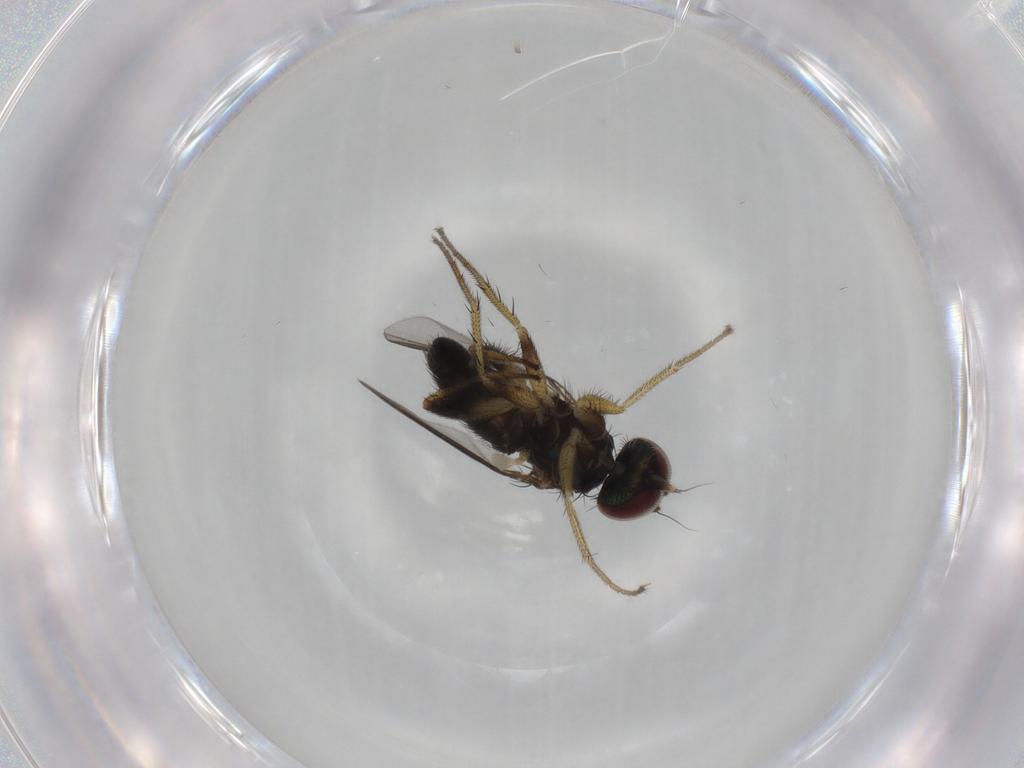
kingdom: Animalia
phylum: Arthropoda
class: Insecta
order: Diptera
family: Dolichopodidae
